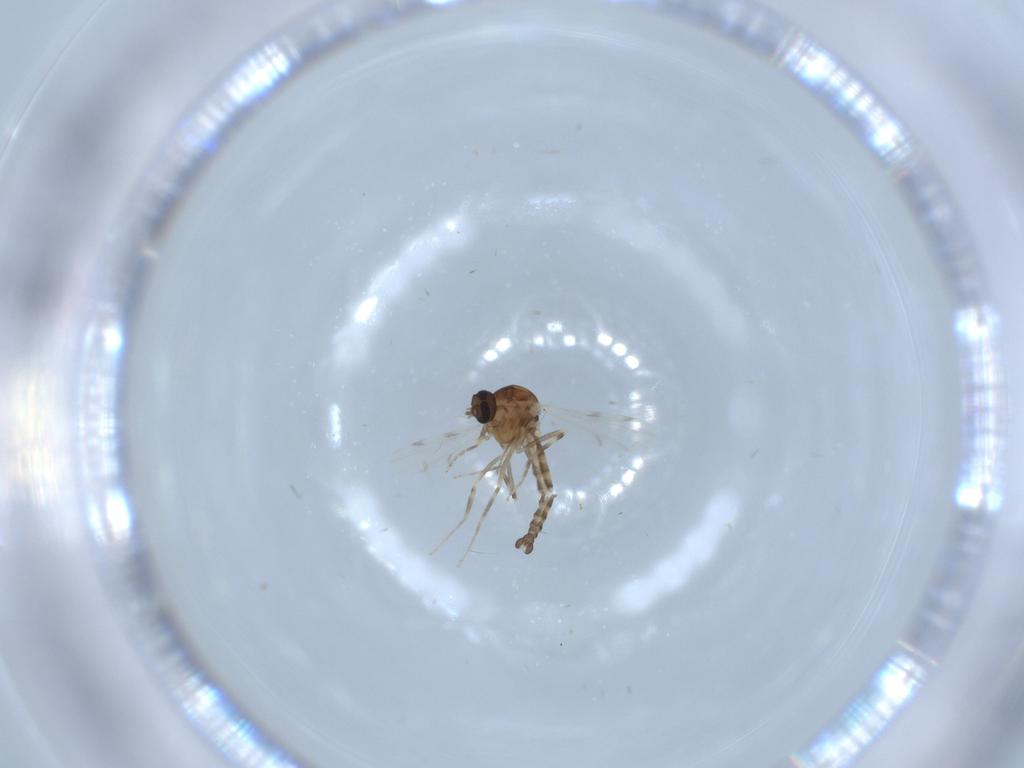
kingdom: Animalia
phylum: Arthropoda
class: Insecta
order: Diptera
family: Ceratopogonidae
